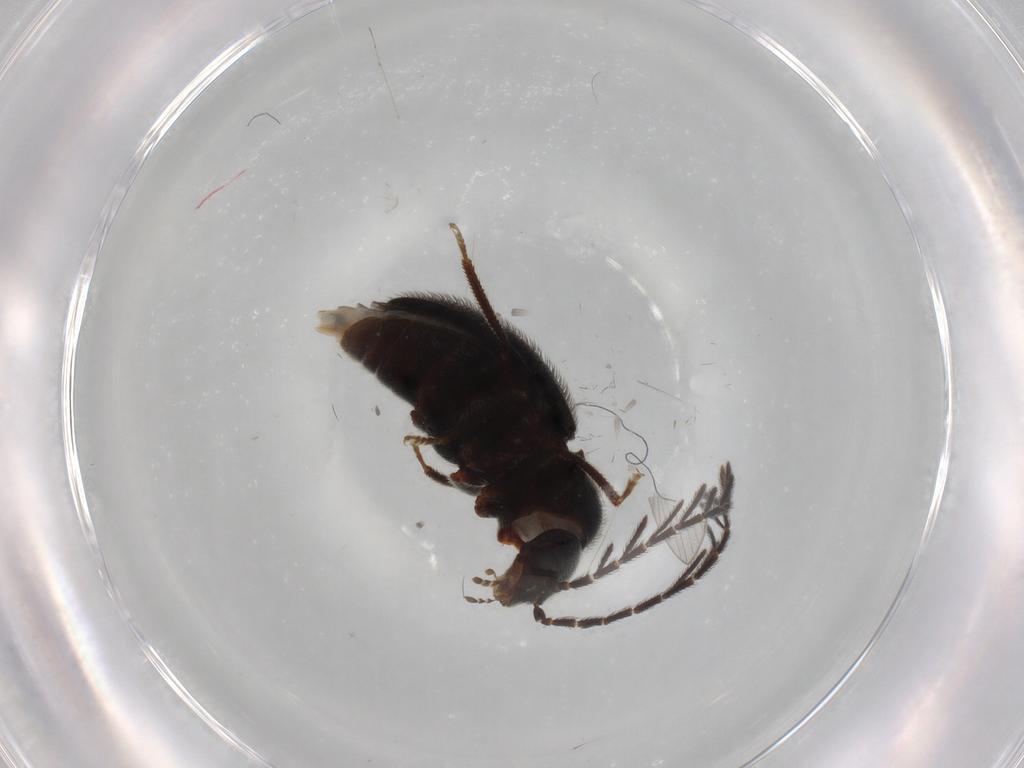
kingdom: Animalia
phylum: Arthropoda
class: Insecta
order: Coleoptera
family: Ptilodactylidae
